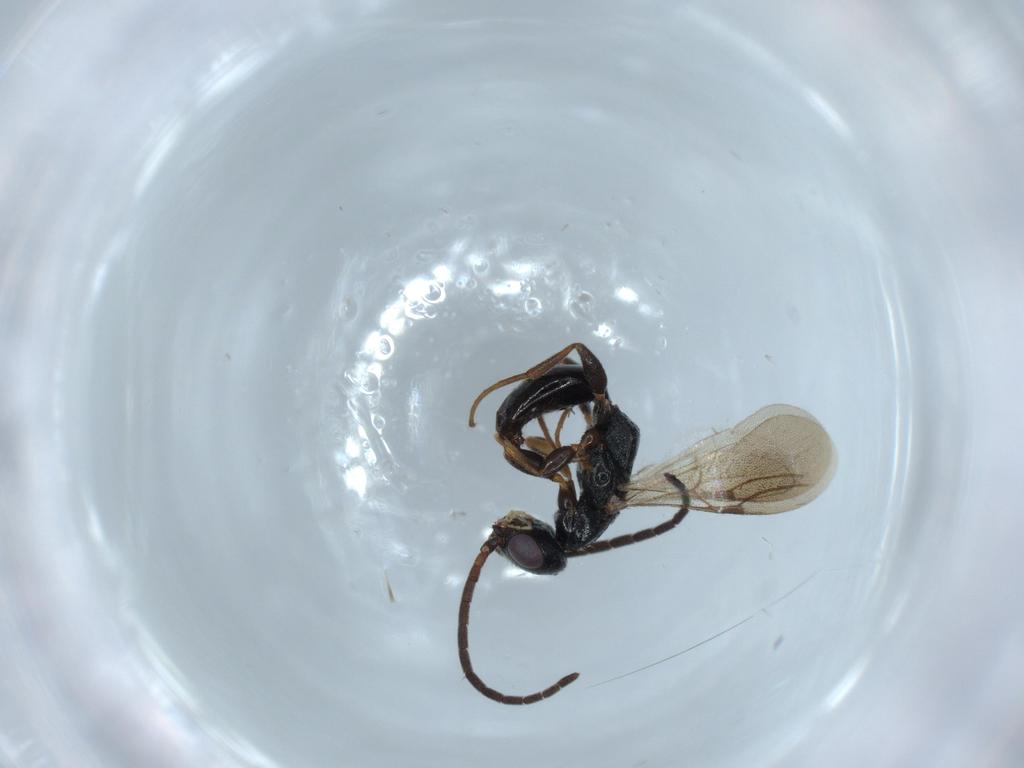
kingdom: Animalia
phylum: Arthropoda
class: Insecta
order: Hymenoptera
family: Bethylidae
